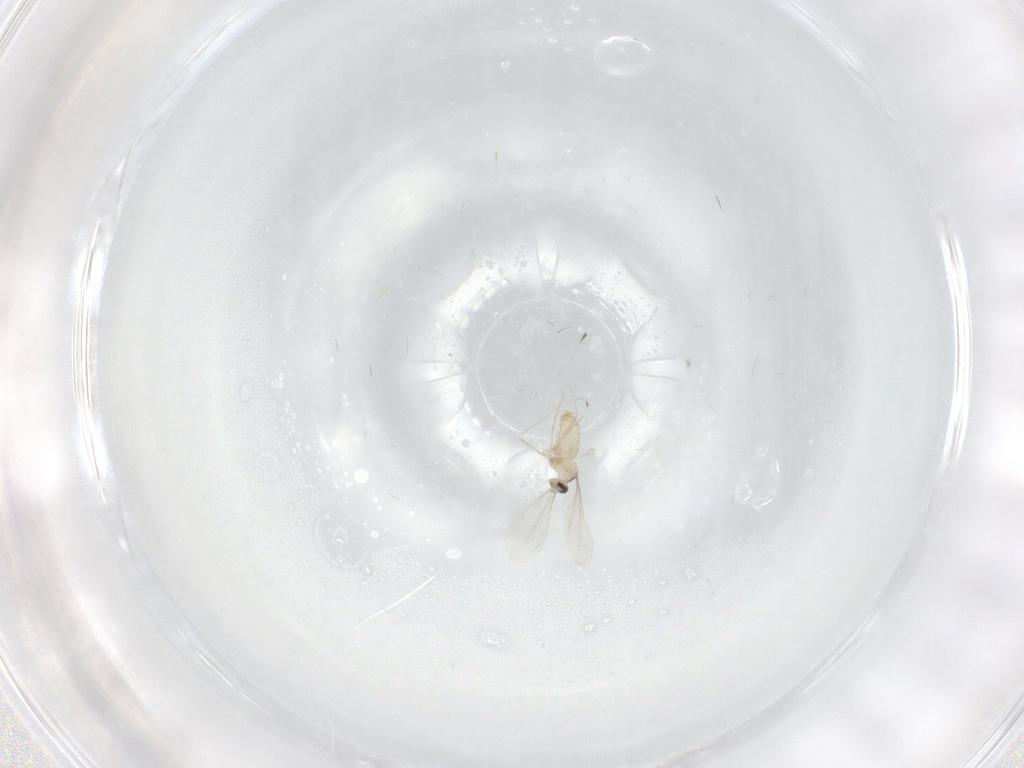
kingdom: Animalia
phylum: Arthropoda
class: Insecta
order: Diptera
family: Cecidomyiidae
